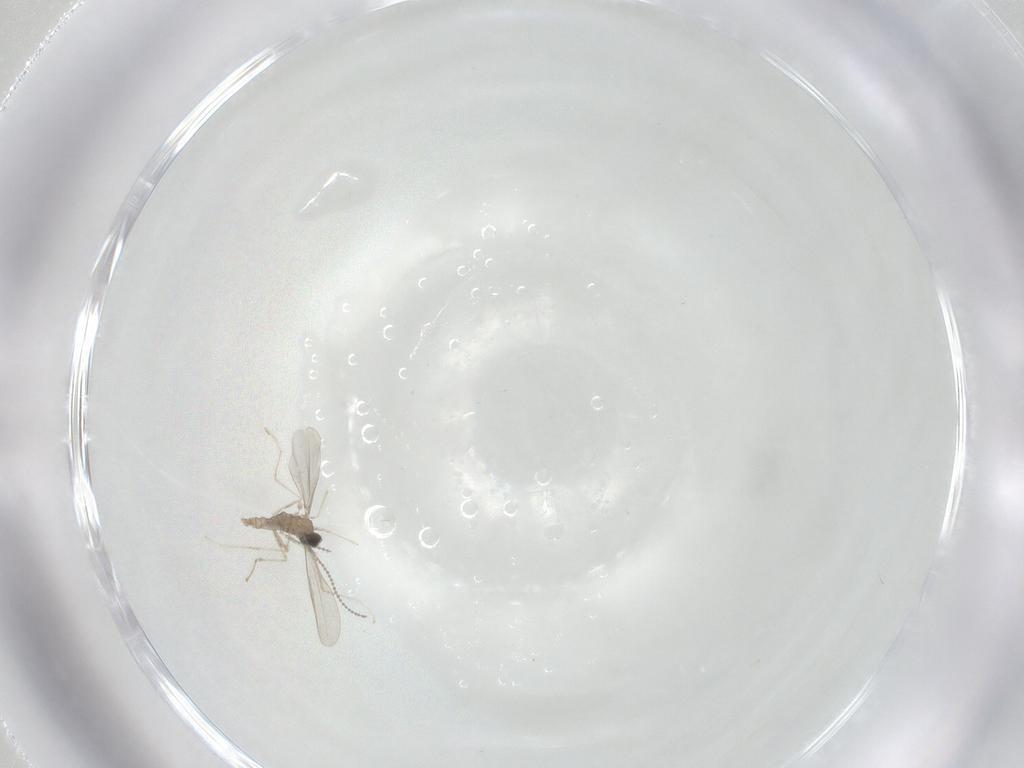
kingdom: Animalia
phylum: Arthropoda
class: Insecta
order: Diptera
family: Cecidomyiidae
